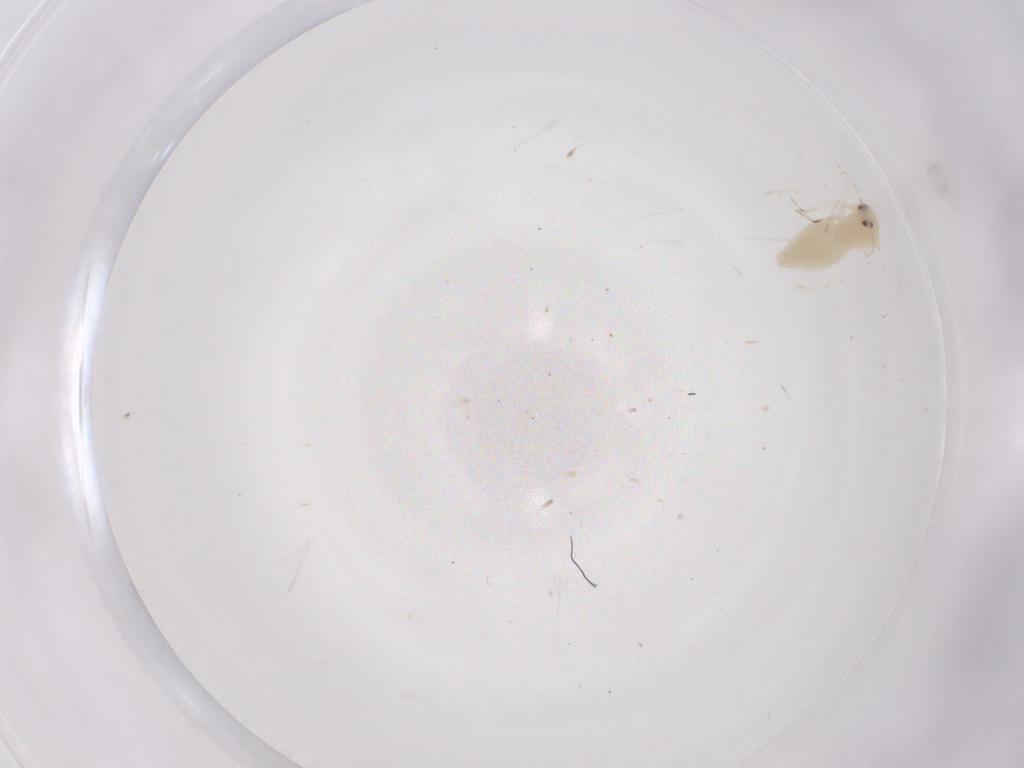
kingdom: Animalia
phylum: Arthropoda
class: Insecta
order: Hemiptera
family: Aleyrodidae
